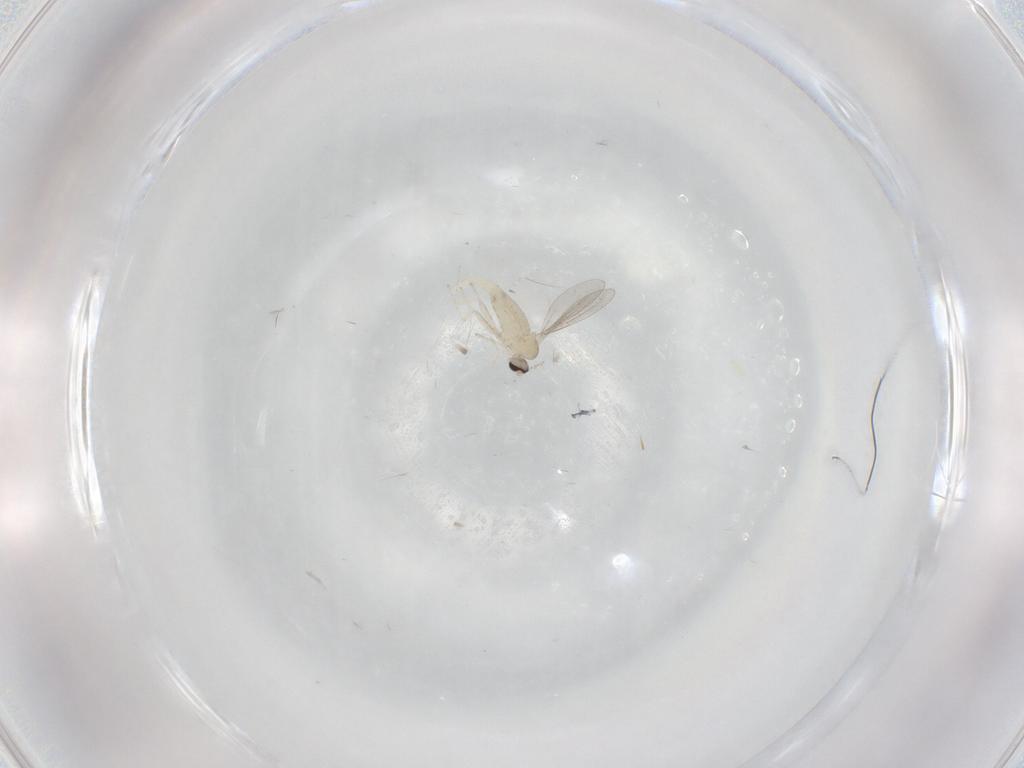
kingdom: Animalia
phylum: Arthropoda
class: Insecta
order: Diptera
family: Cecidomyiidae
